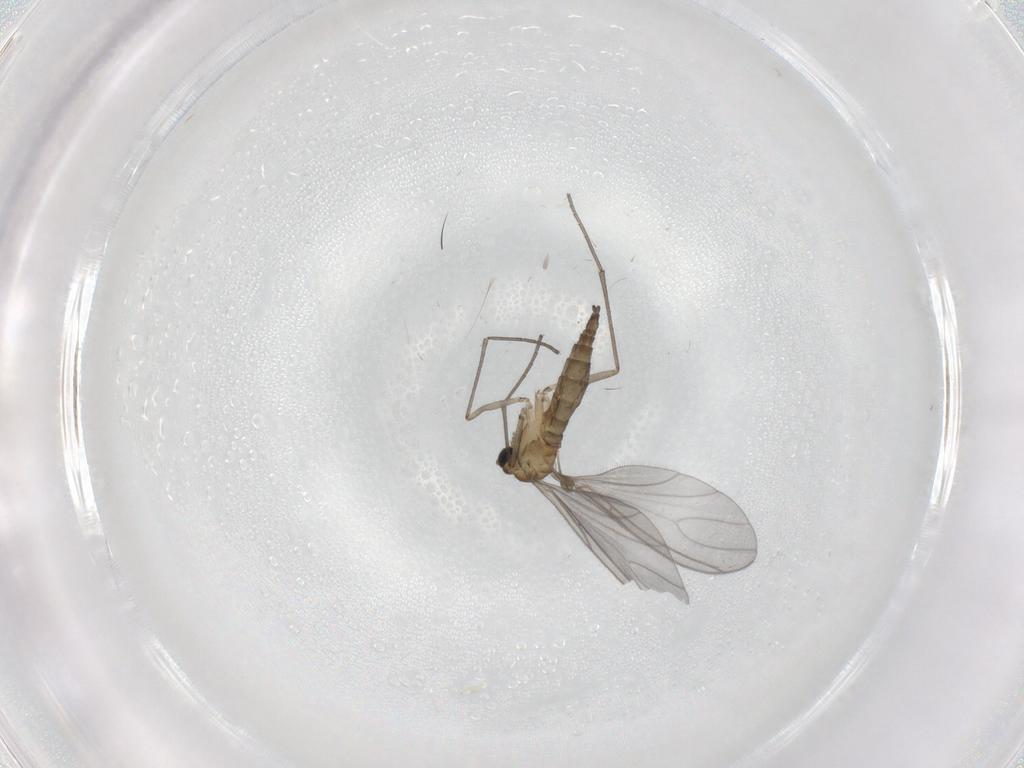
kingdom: Animalia
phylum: Arthropoda
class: Insecta
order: Diptera
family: Sciaridae
